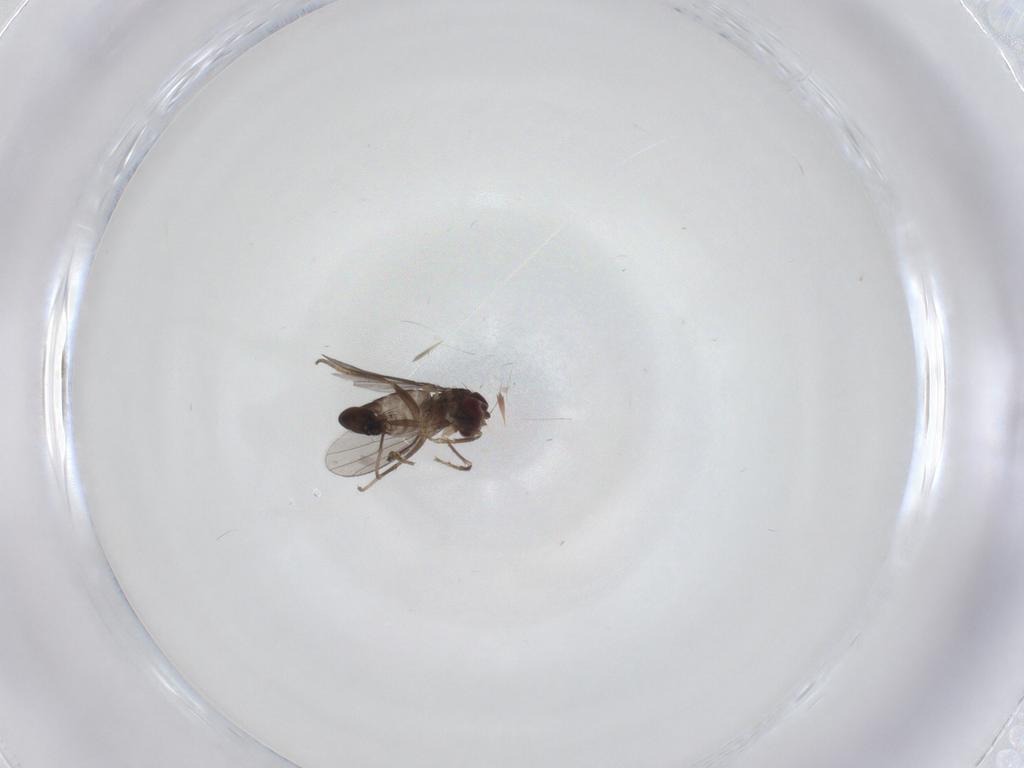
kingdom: Animalia
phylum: Arthropoda
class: Insecta
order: Diptera
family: Dolichopodidae
